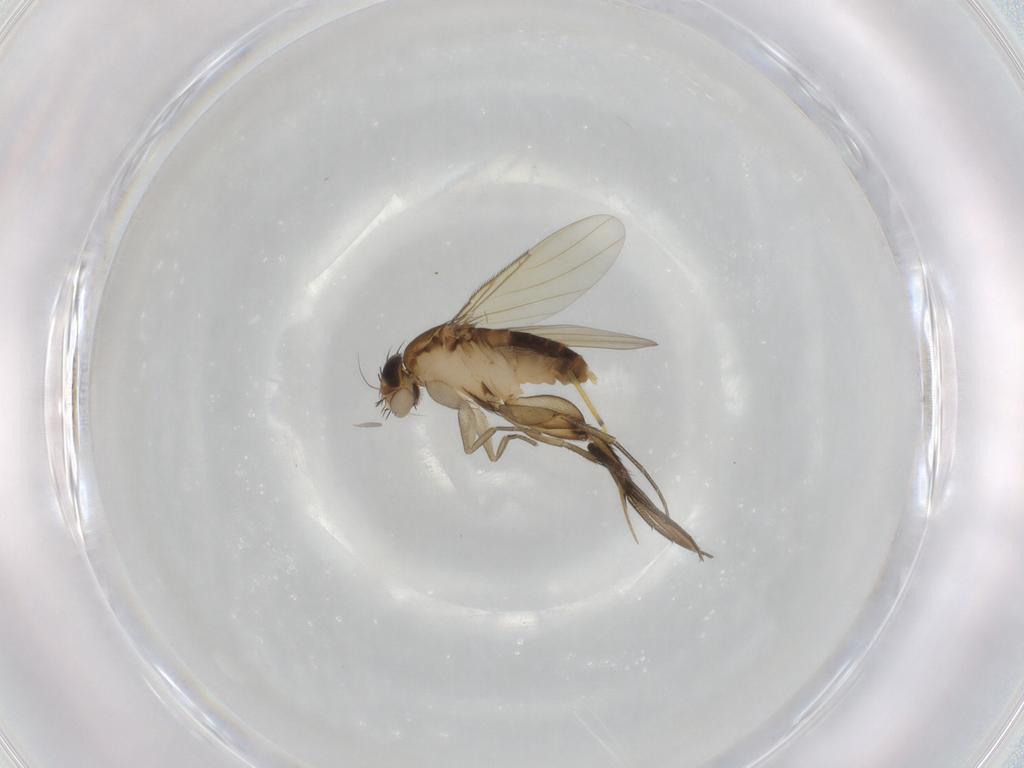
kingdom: Animalia
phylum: Arthropoda
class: Insecta
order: Diptera
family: Phoridae
